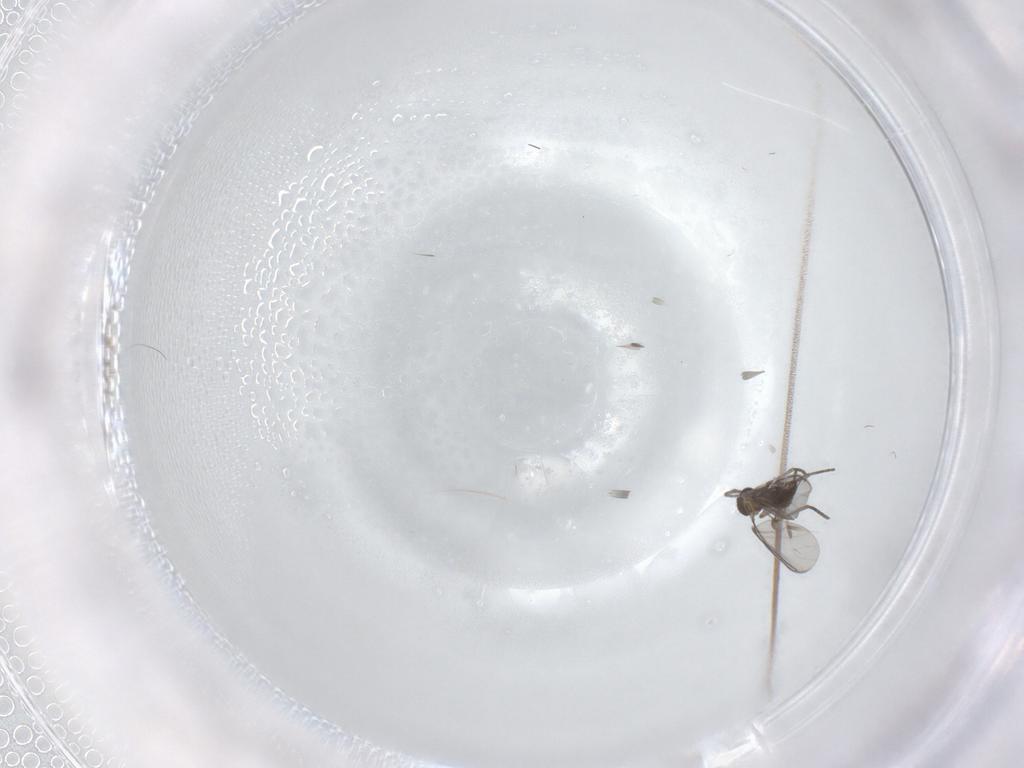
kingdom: Animalia
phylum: Arthropoda
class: Insecta
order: Diptera
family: Sciaridae
